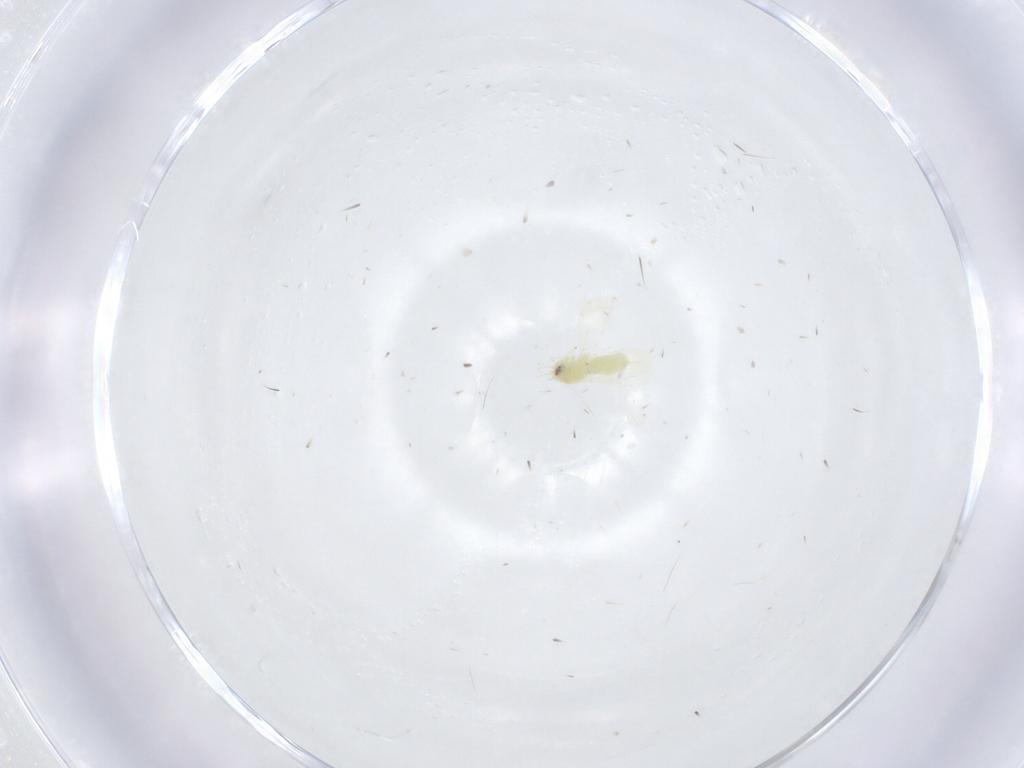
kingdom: Animalia
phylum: Arthropoda
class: Insecta
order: Hemiptera
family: Aleyrodidae
